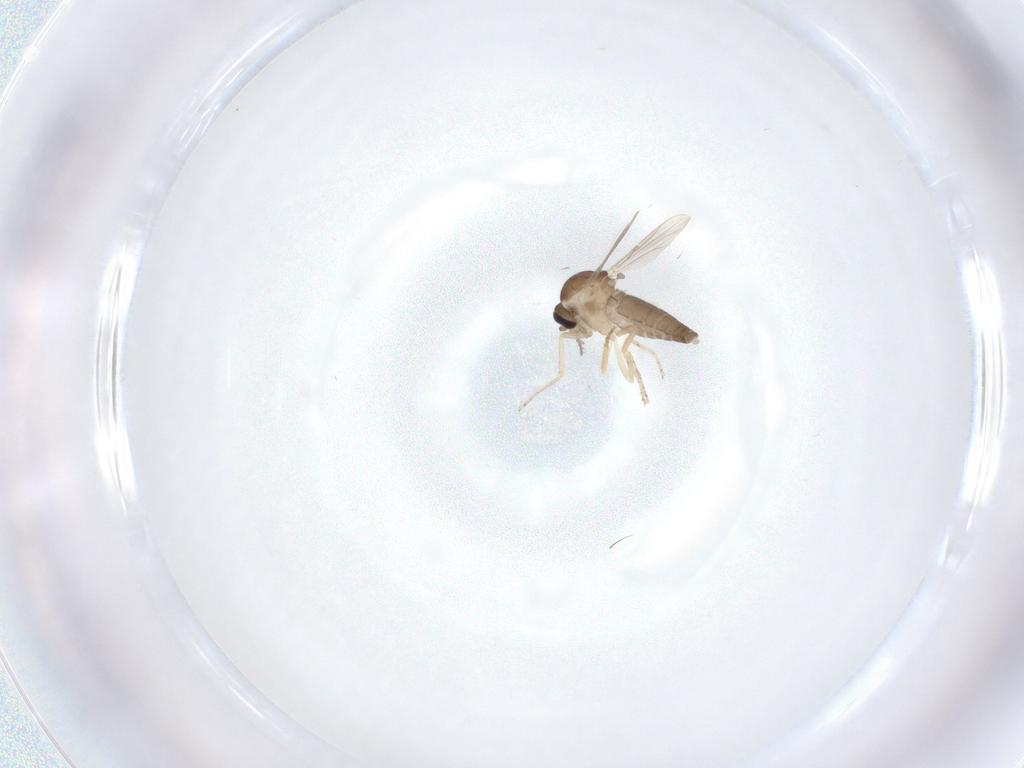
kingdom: Animalia
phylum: Arthropoda
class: Insecta
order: Diptera
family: Ceratopogonidae
